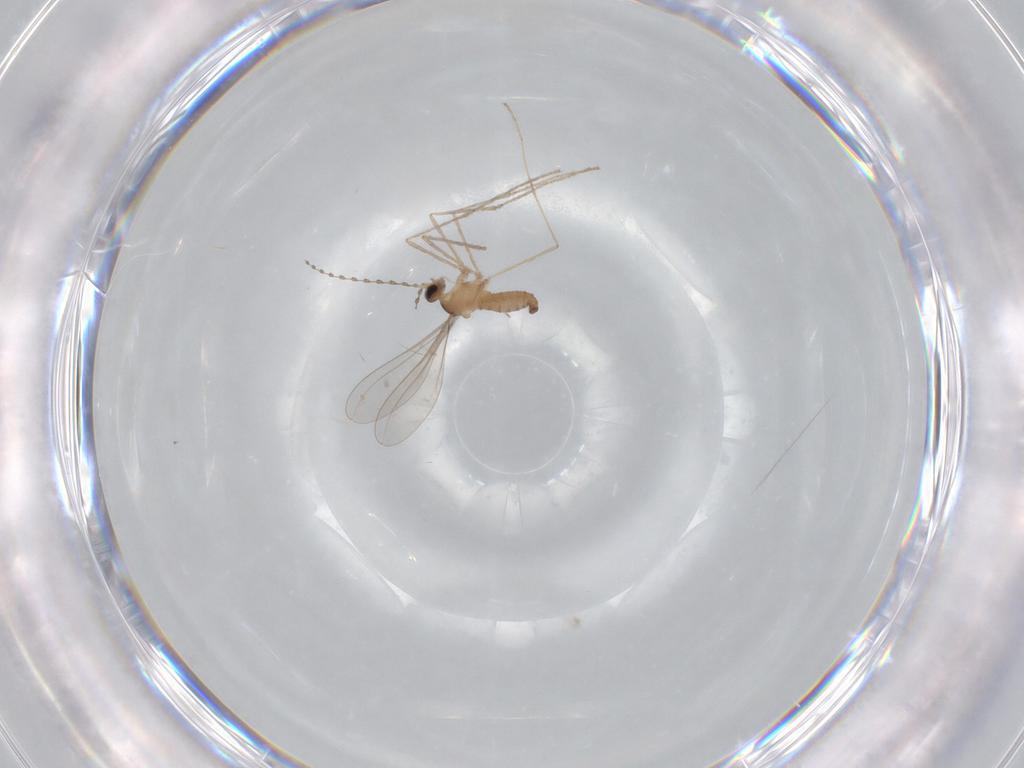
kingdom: Animalia
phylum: Arthropoda
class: Insecta
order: Diptera
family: Cecidomyiidae
